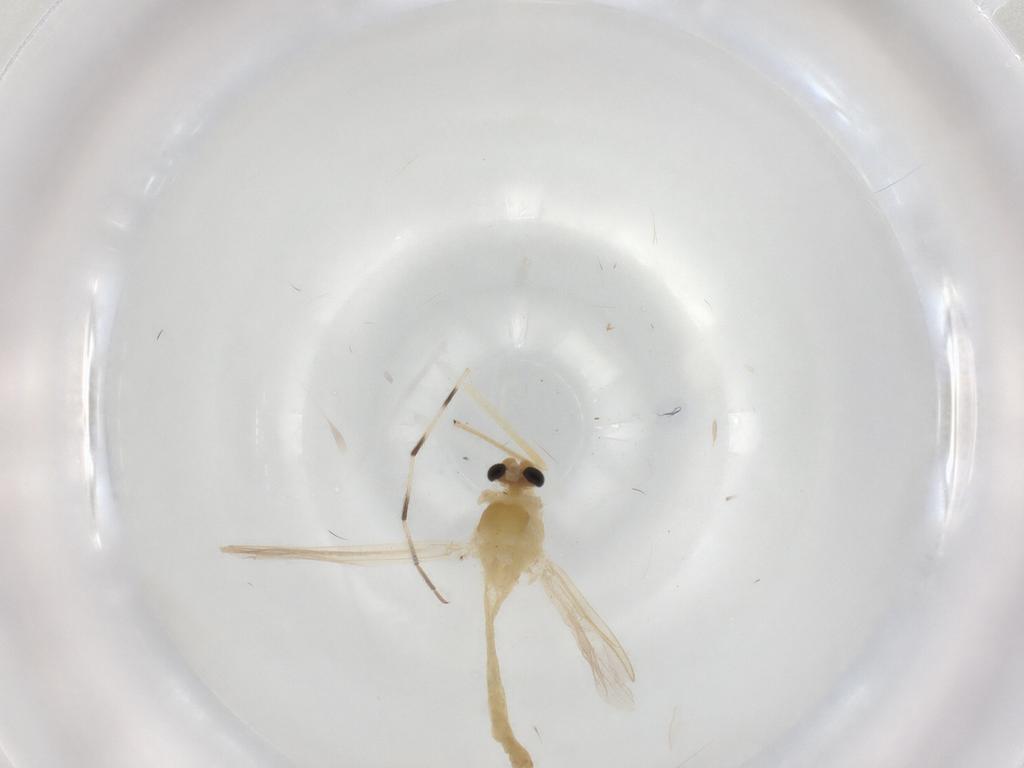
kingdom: Animalia
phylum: Arthropoda
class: Insecta
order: Diptera
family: Chironomidae
